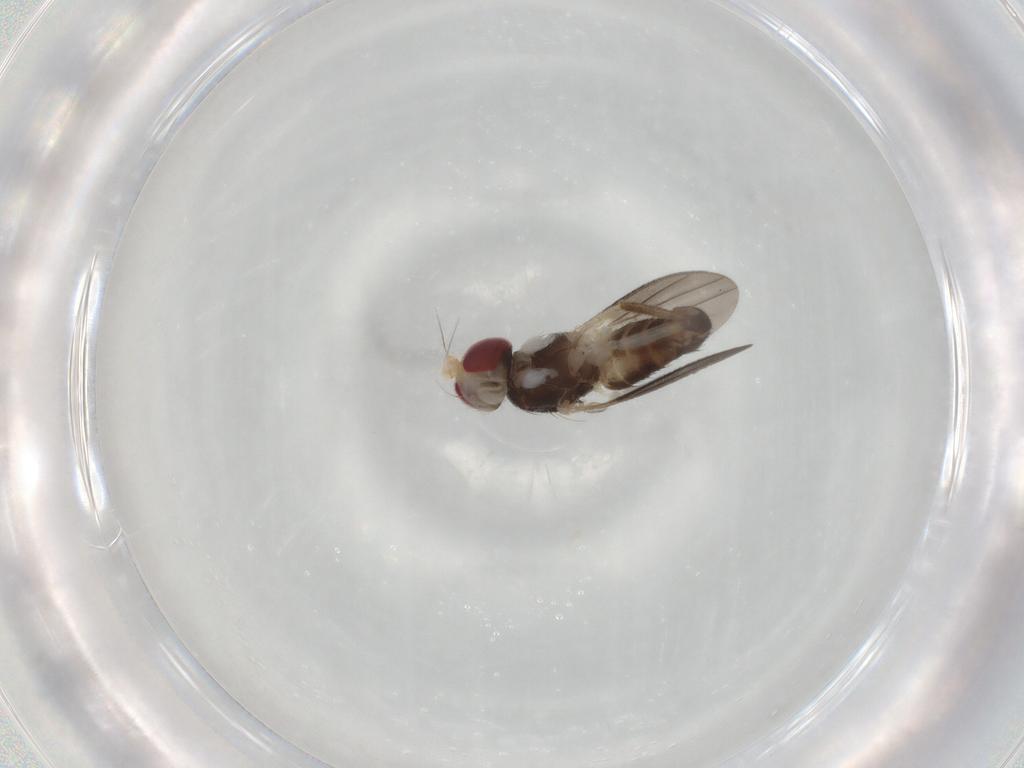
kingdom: Animalia
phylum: Arthropoda
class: Insecta
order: Diptera
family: Clusiidae
